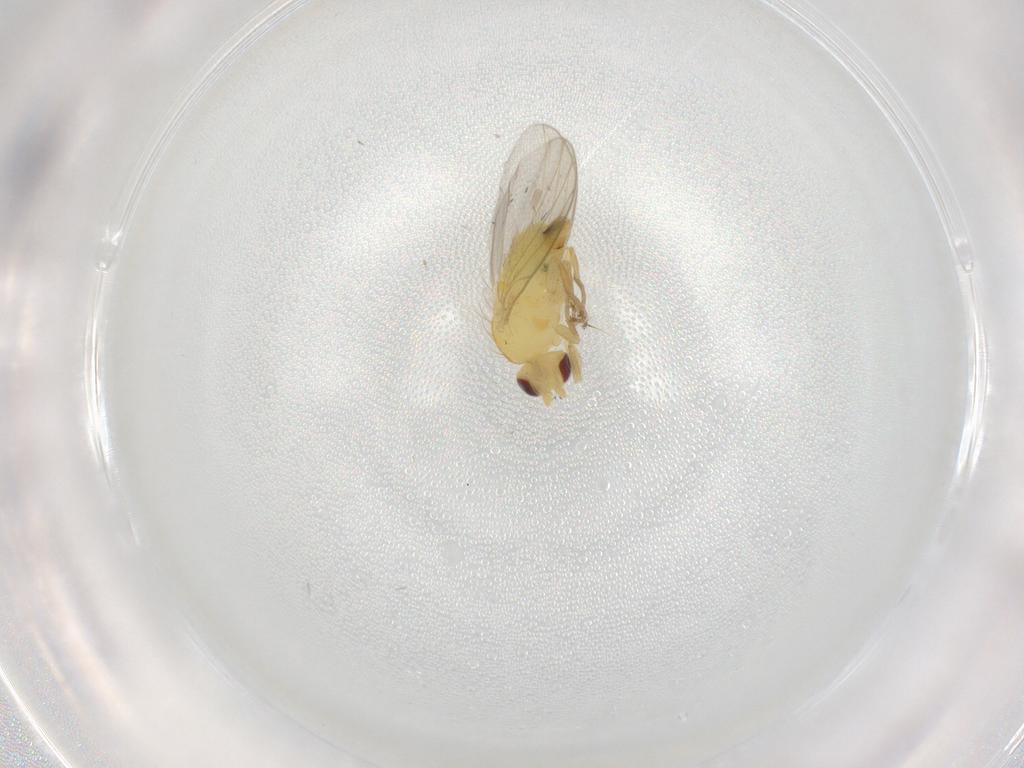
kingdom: Animalia
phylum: Arthropoda
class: Insecta
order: Diptera
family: Agromyzidae
